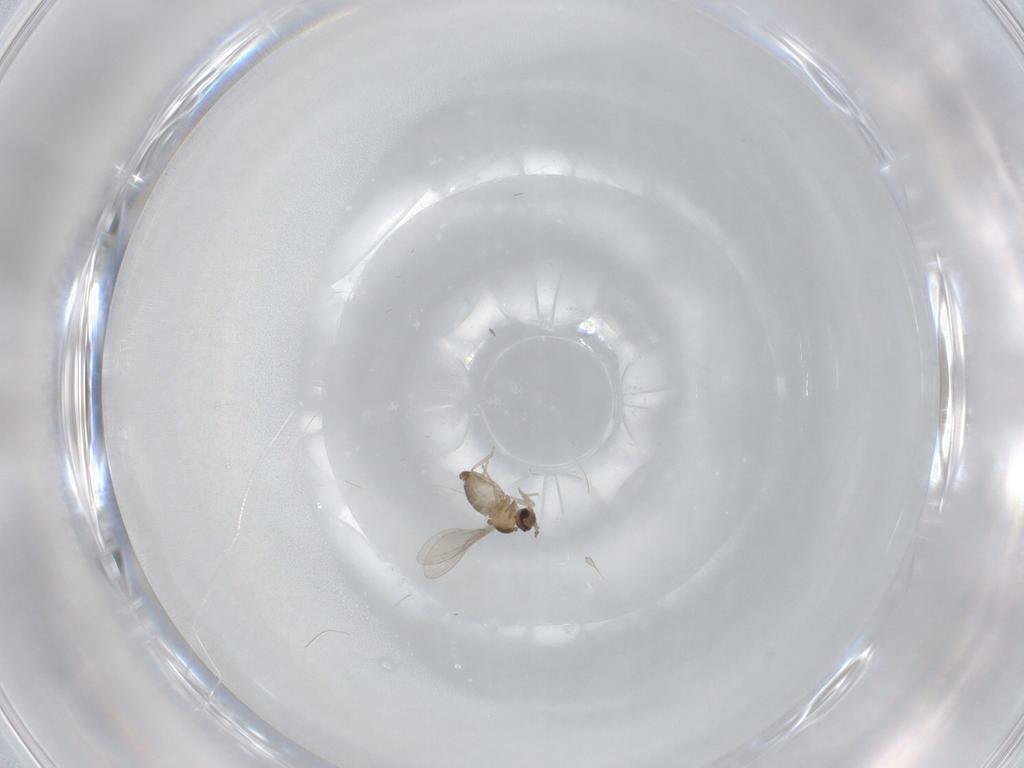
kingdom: Animalia
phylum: Arthropoda
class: Insecta
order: Diptera
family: Cecidomyiidae
